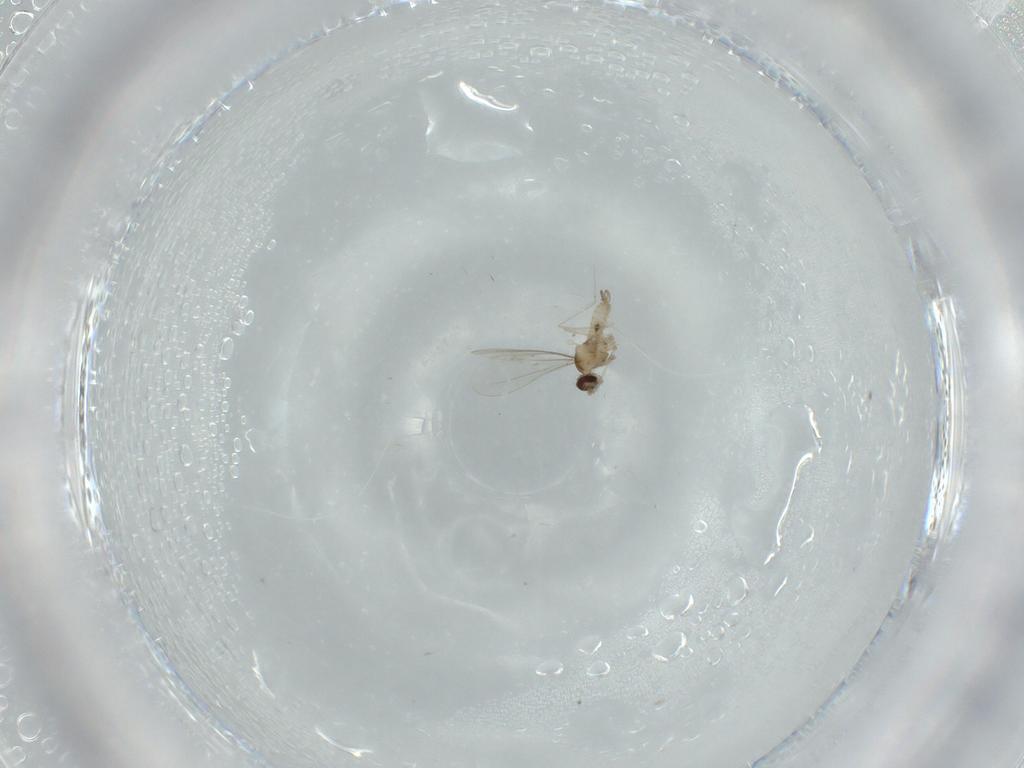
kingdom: Animalia
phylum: Arthropoda
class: Insecta
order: Diptera
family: Cecidomyiidae
